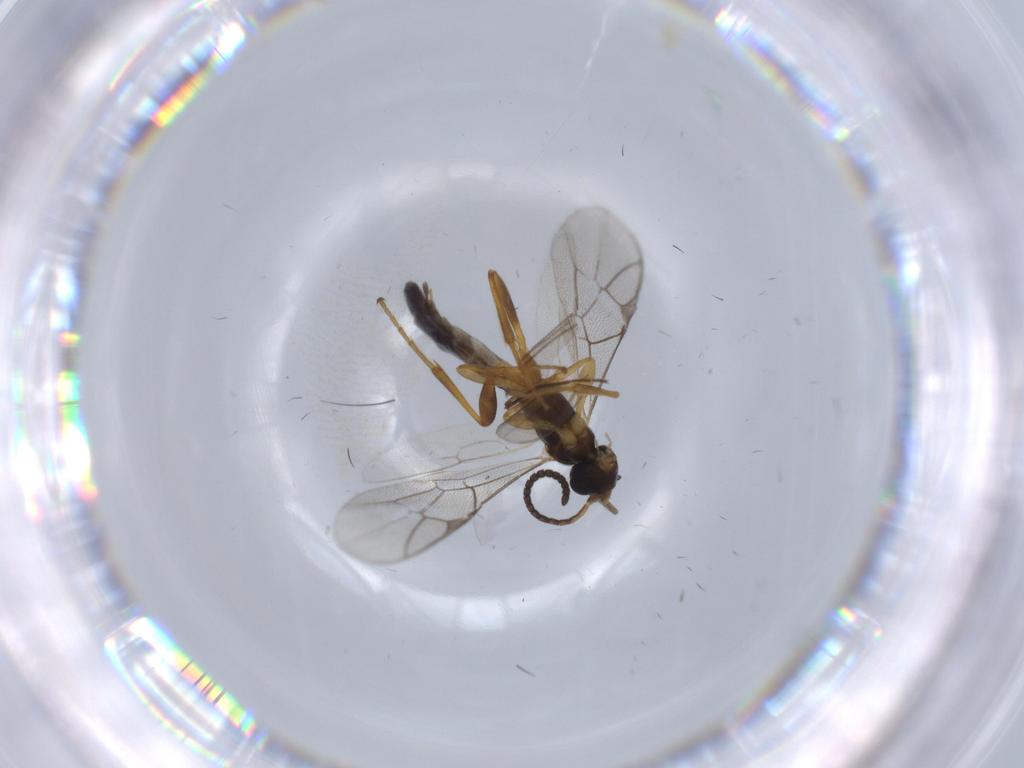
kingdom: Animalia
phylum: Arthropoda
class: Insecta
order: Hymenoptera
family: Ichneumonidae
